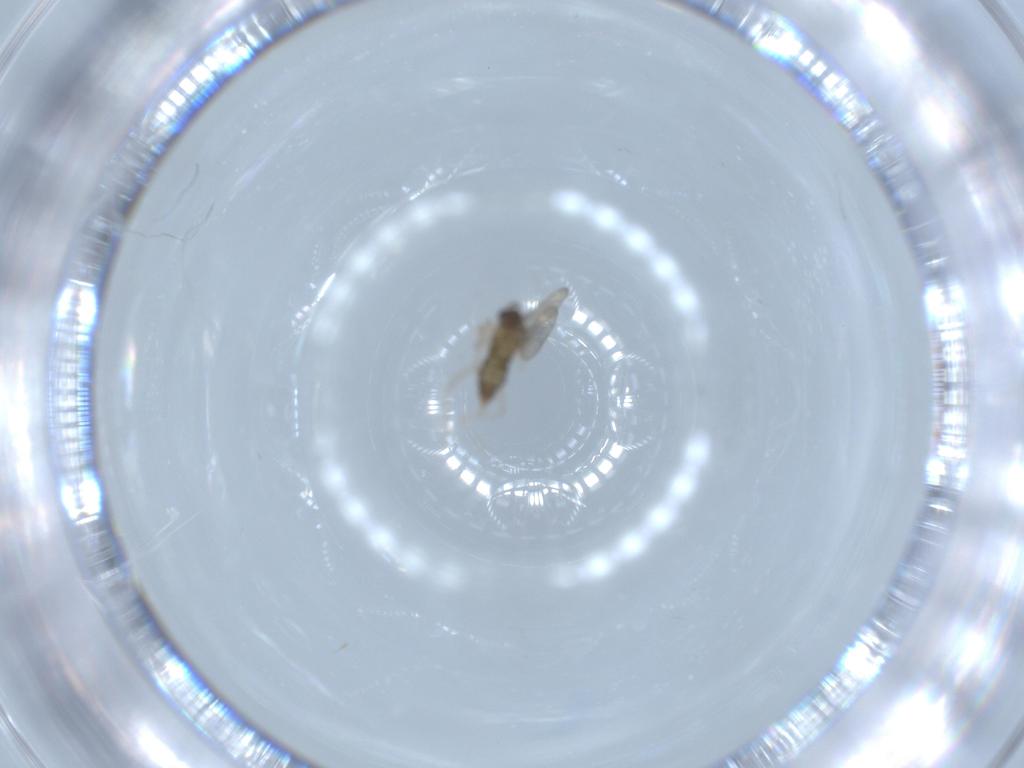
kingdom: Animalia
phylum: Arthropoda
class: Insecta
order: Diptera
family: Cecidomyiidae
